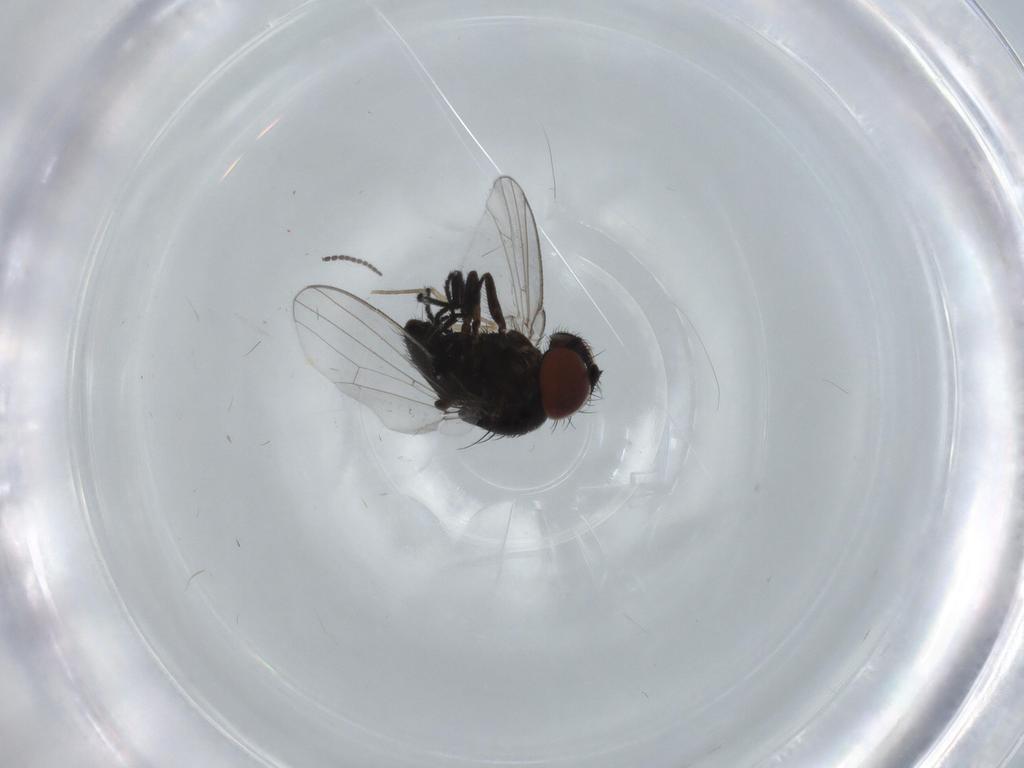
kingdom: Animalia
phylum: Arthropoda
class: Insecta
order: Diptera
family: Sciaridae
